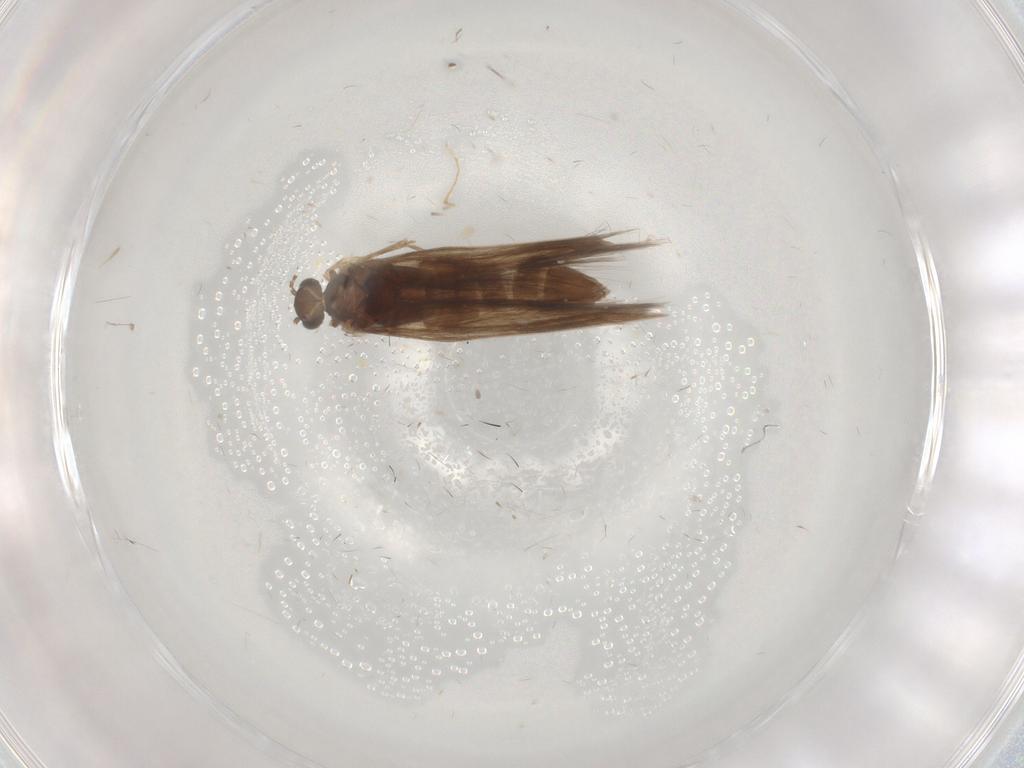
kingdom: Animalia
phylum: Arthropoda
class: Insecta
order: Trichoptera
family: Hydroptilidae
